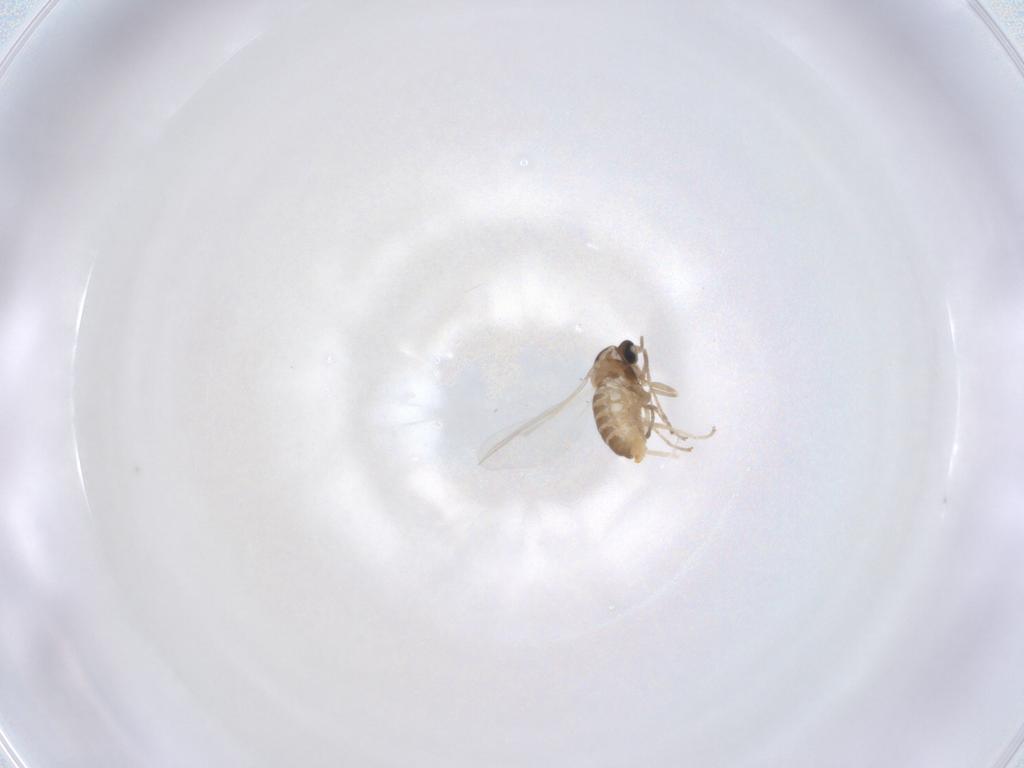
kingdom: Animalia
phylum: Arthropoda
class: Insecta
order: Diptera
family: Cecidomyiidae
